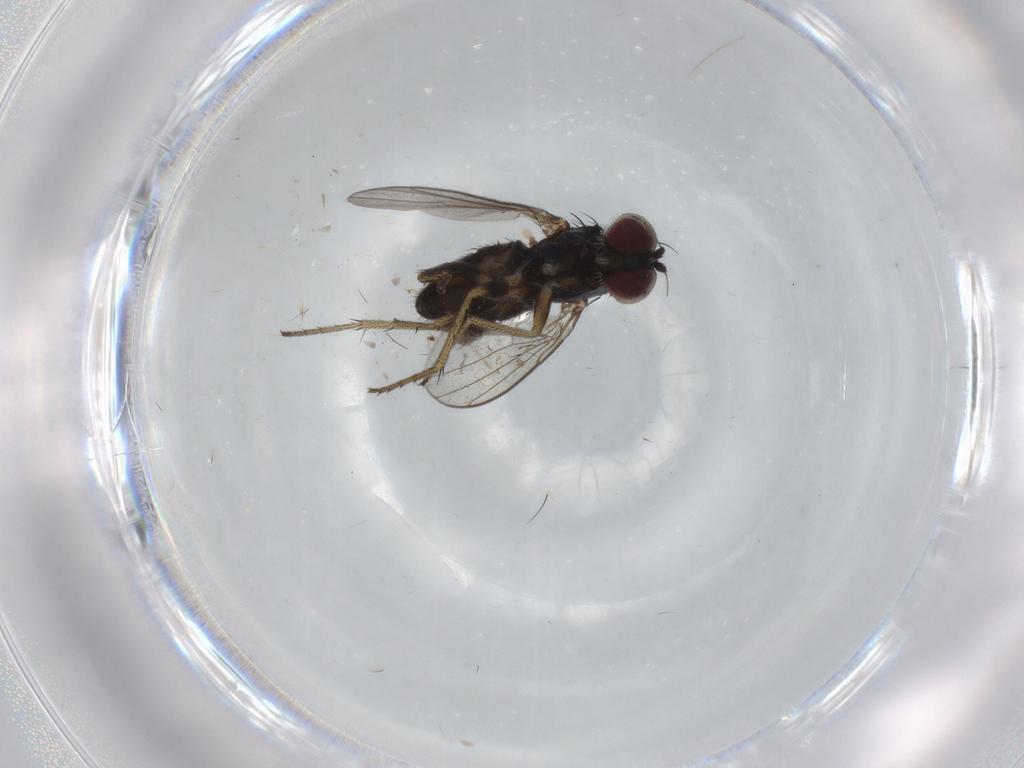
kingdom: Animalia
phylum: Arthropoda
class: Insecta
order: Diptera
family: Cecidomyiidae
